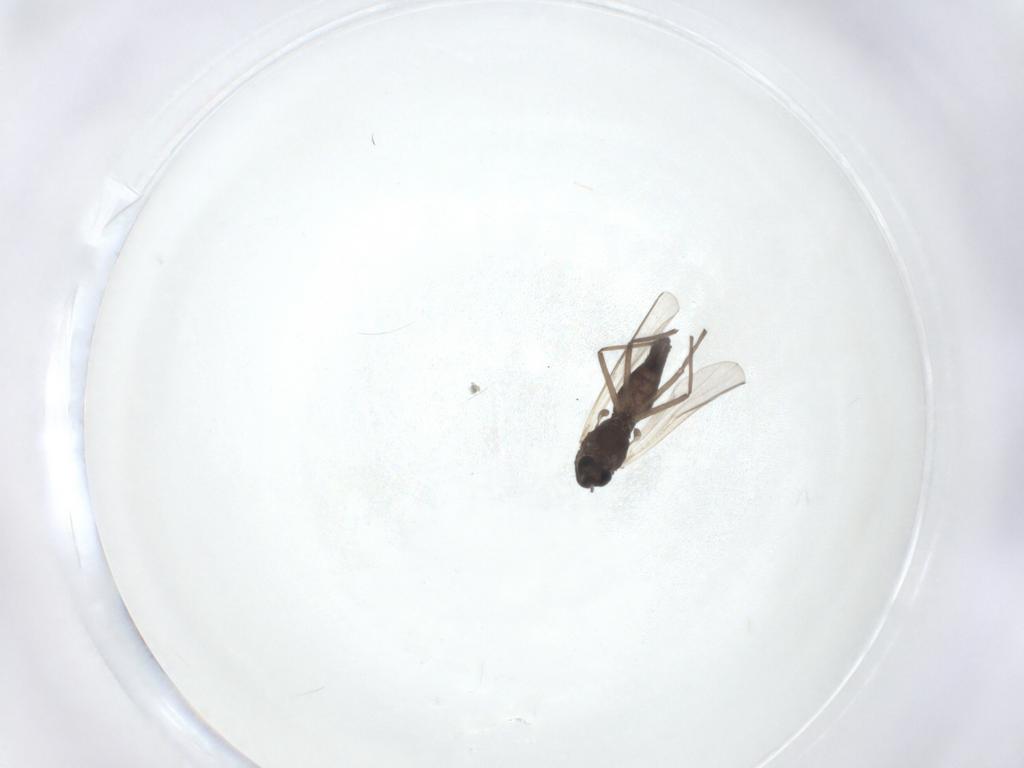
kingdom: Animalia
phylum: Arthropoda
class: Insecta
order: Diptera
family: Chironomidae
